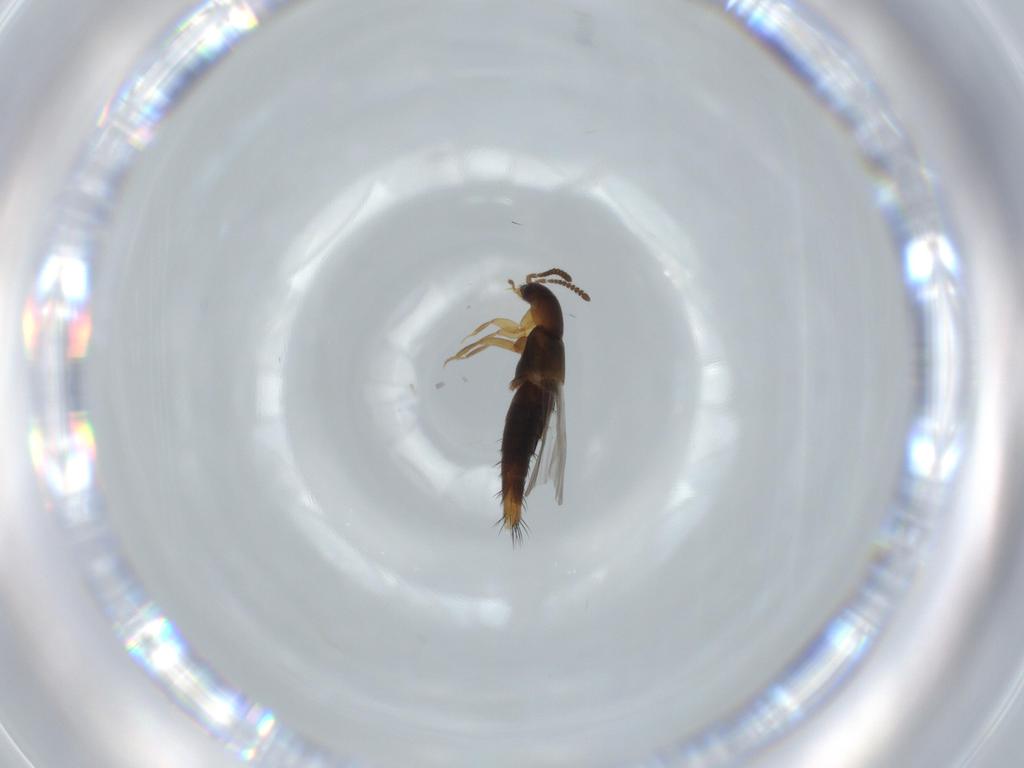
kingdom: Animalia
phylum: Arthropoda
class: Insecta
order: Coleoptera
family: Staphylinidae
